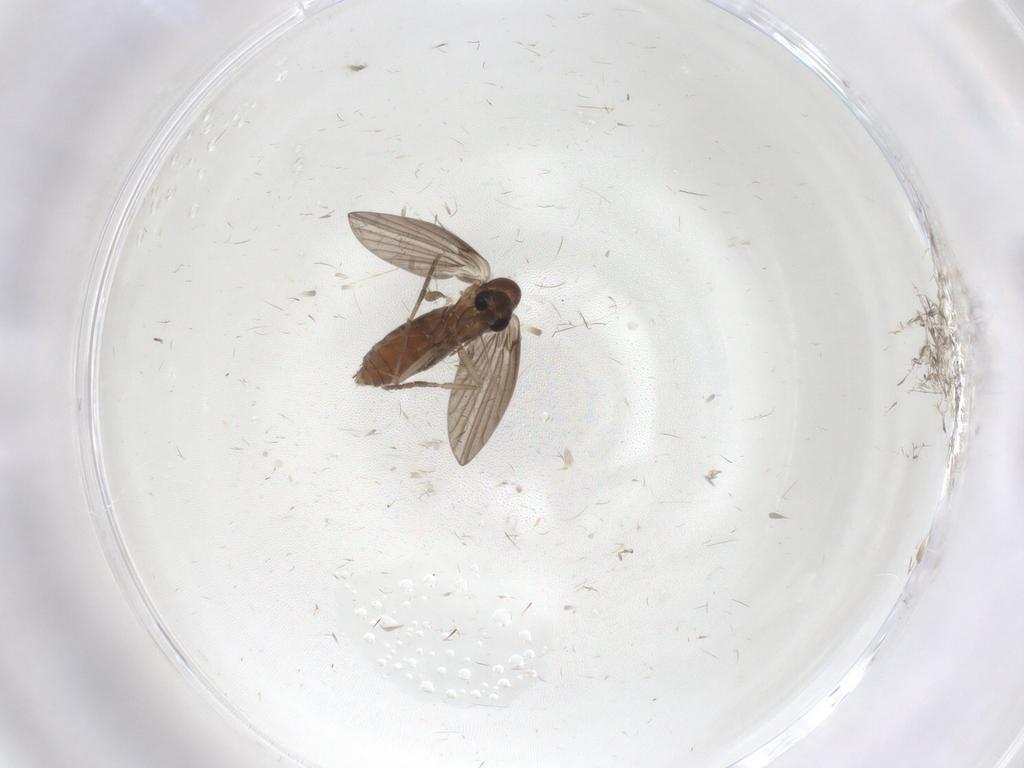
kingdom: Animalia
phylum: Arthropoda
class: Insecta
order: Diptera
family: Psychodidae
